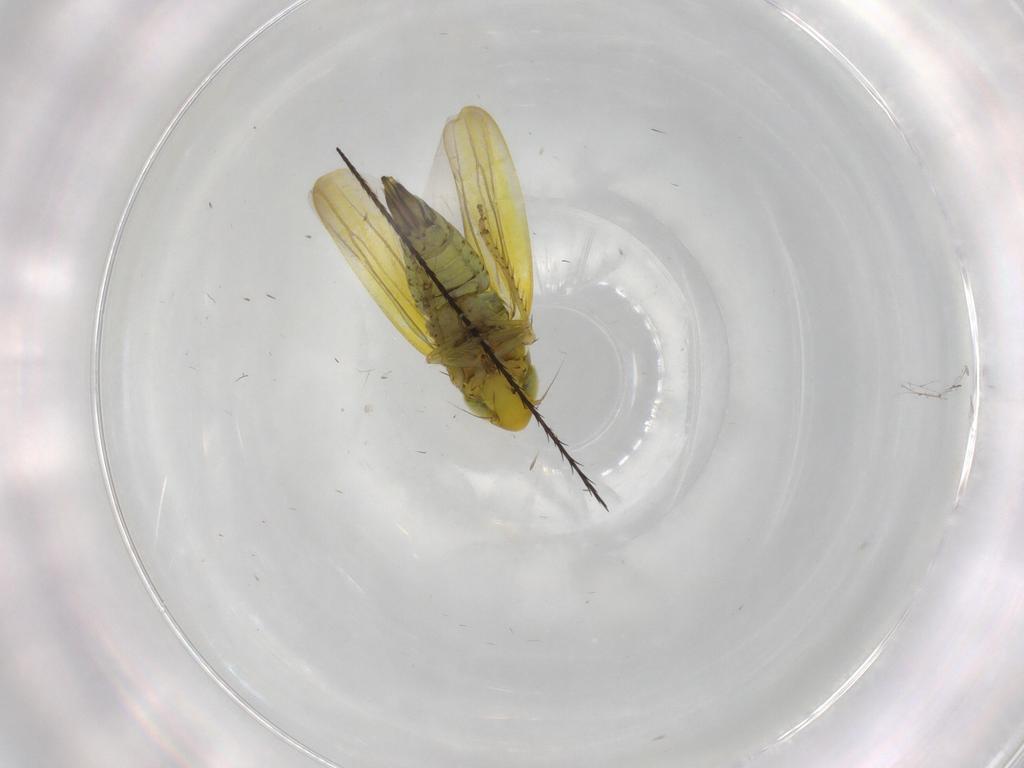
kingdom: Animalia
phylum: Arthropoda
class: Insecta
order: Hemiptera
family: Cicadellidae
